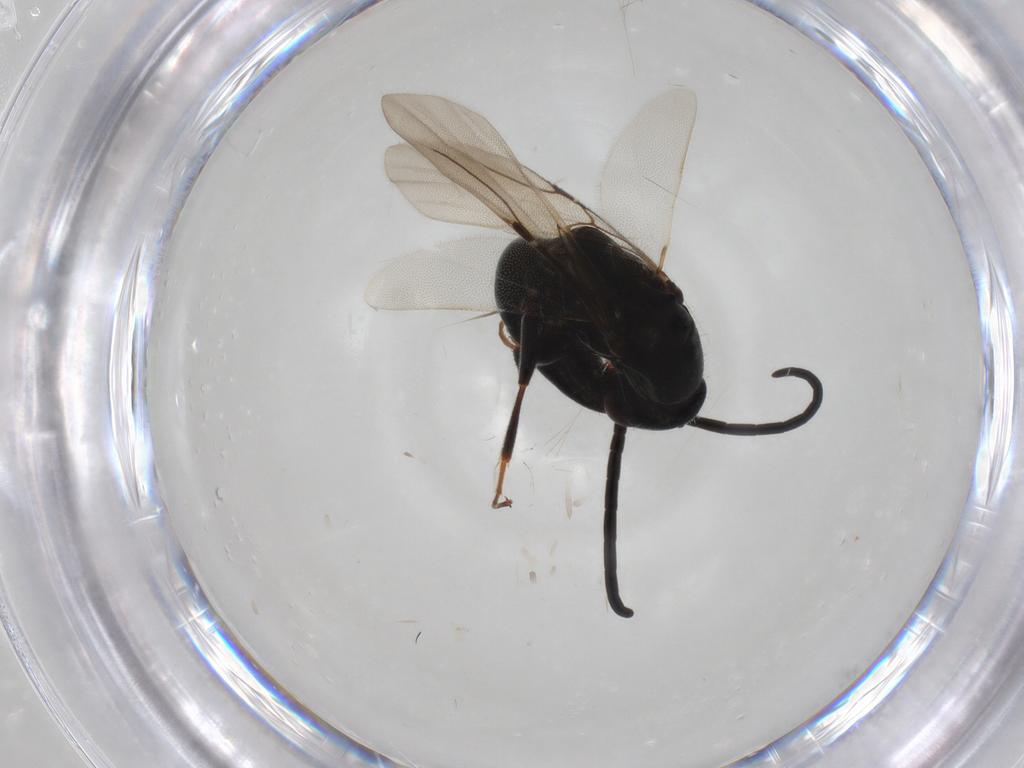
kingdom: Animalia
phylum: Arthropoda
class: Insecta
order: Hymenoptera
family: Bethylidae
